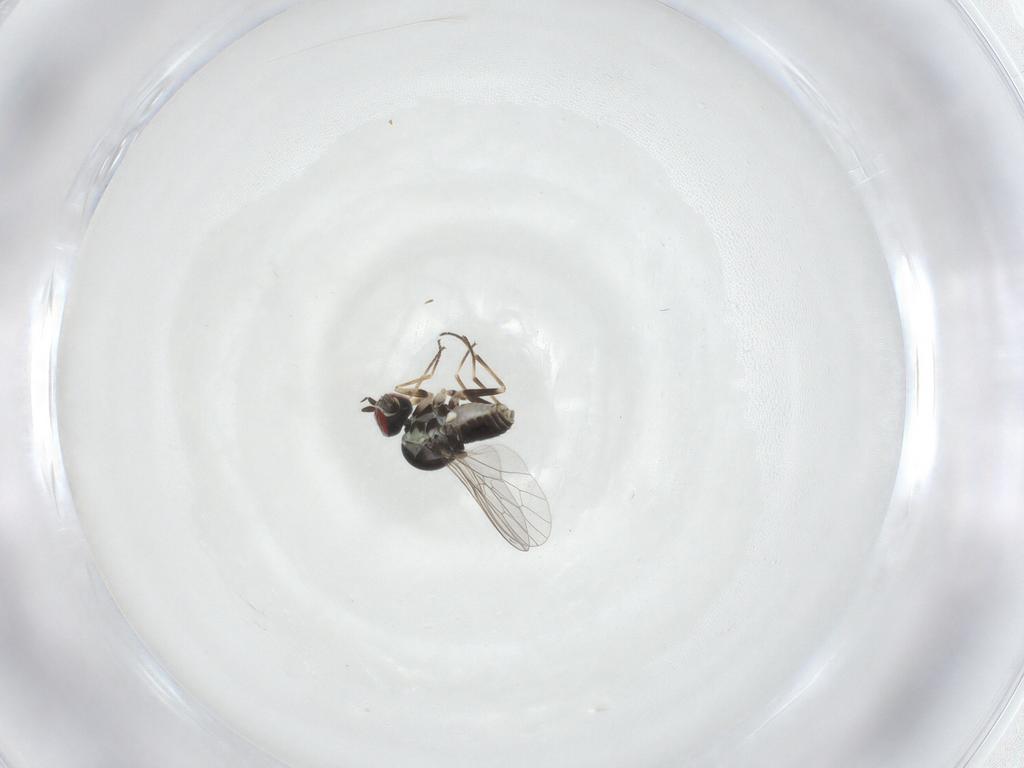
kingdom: Animalia
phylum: Arthropoda
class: Insecta
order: Diptera
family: Mythicomyiidae
